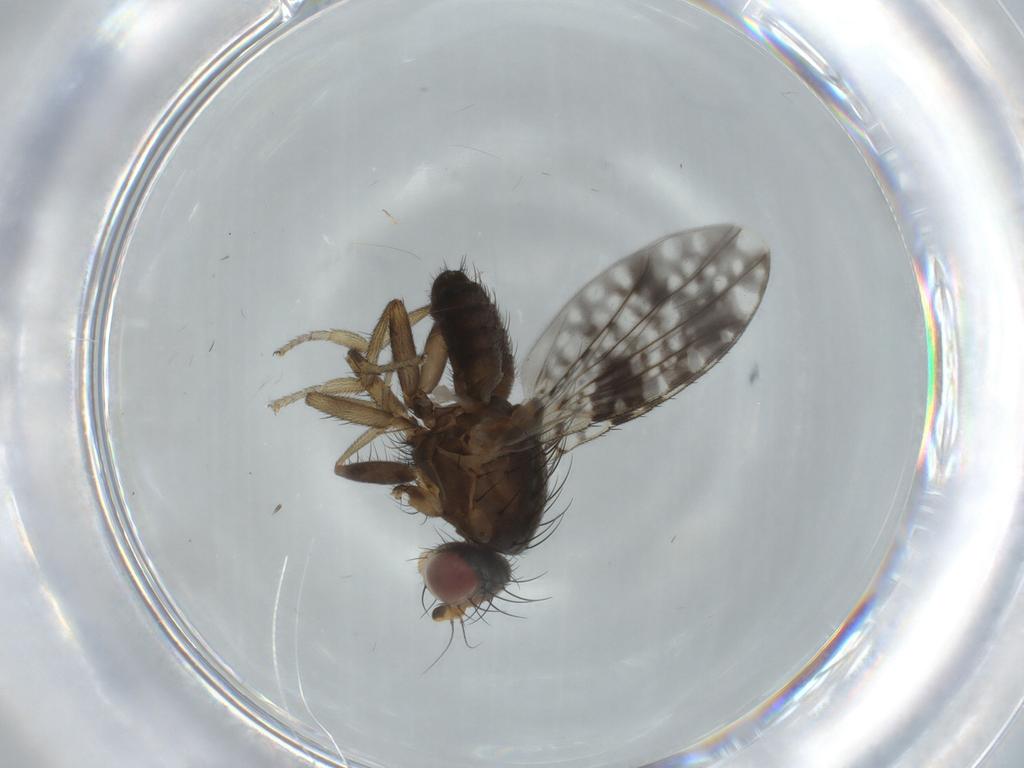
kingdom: Animalia
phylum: Arthropoda
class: Insecta
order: Diptera
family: Tephritidae
